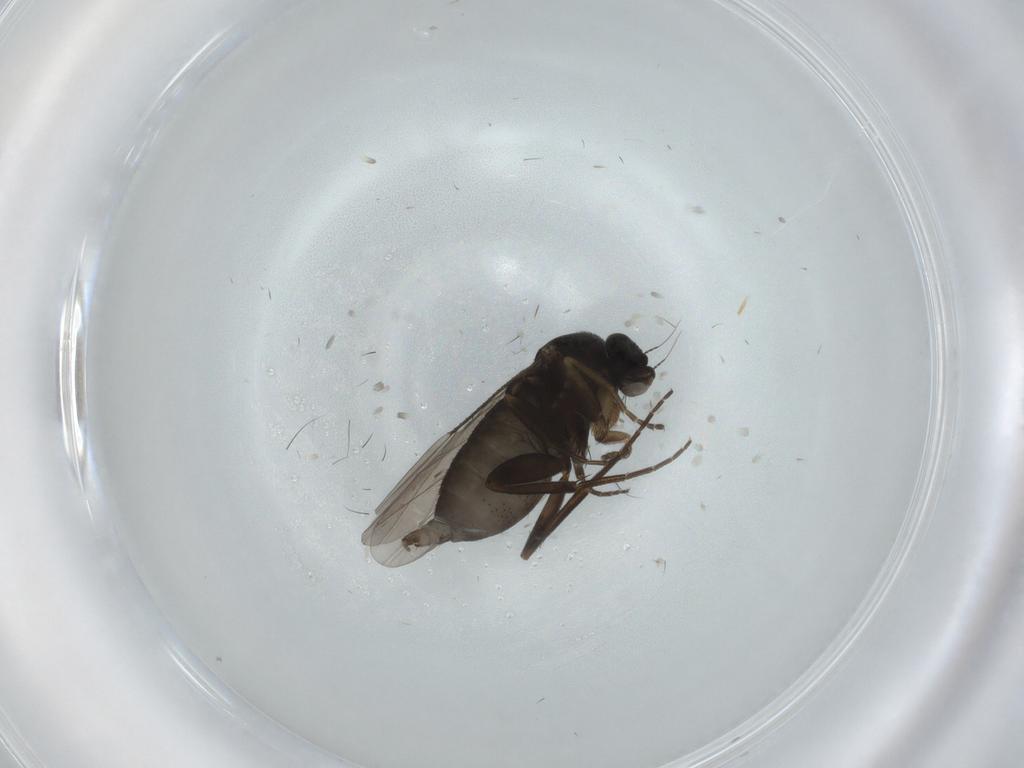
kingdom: Animalia
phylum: Arthropoda
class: Insecta
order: Diptera
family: Phoridae
